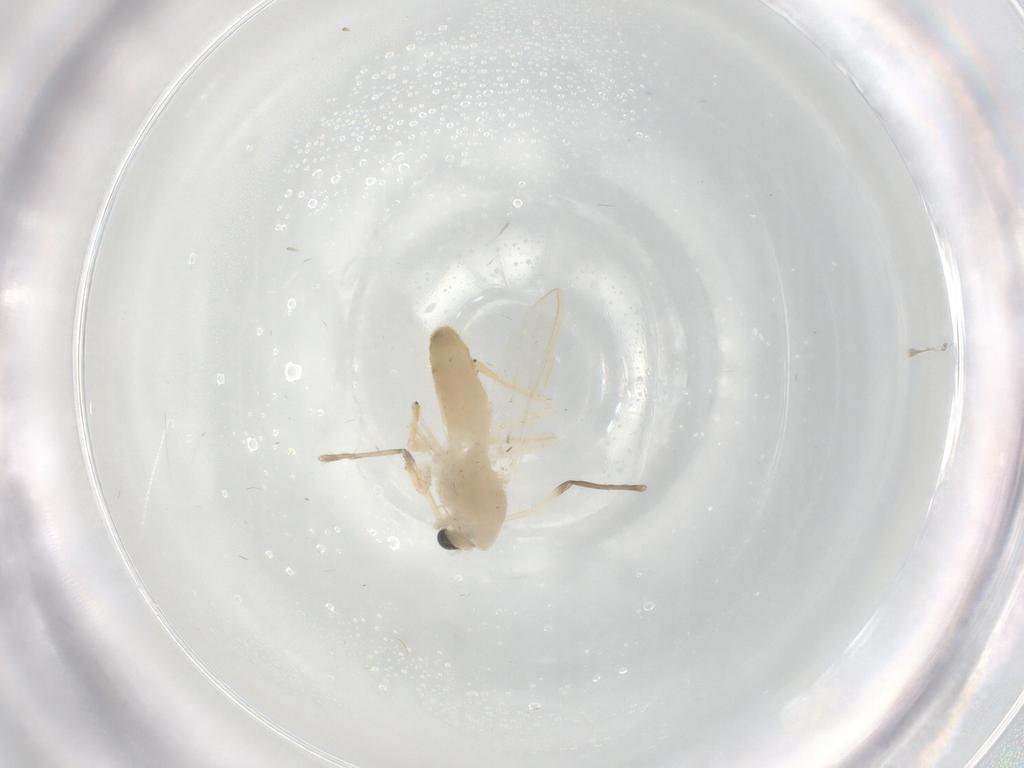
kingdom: Animalia
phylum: Arthropoda
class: Insecta
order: Diptera
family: Chironomidae
